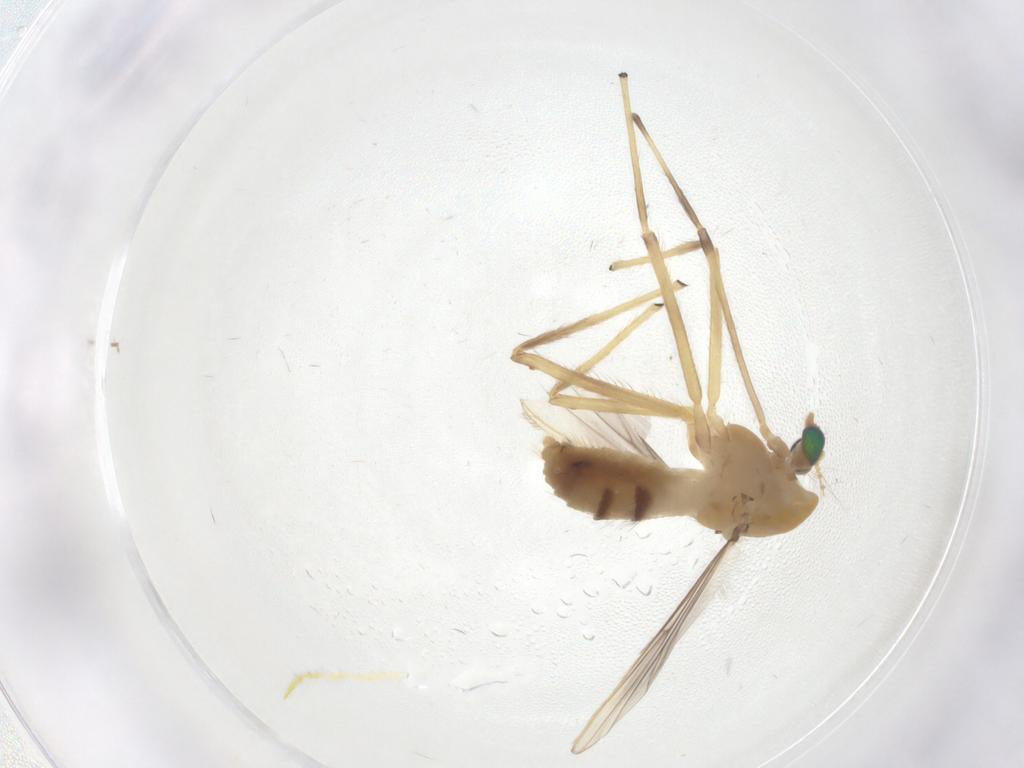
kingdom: Animalia
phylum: Arthropoda
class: Insecta
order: Diptera
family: Chironomidae
